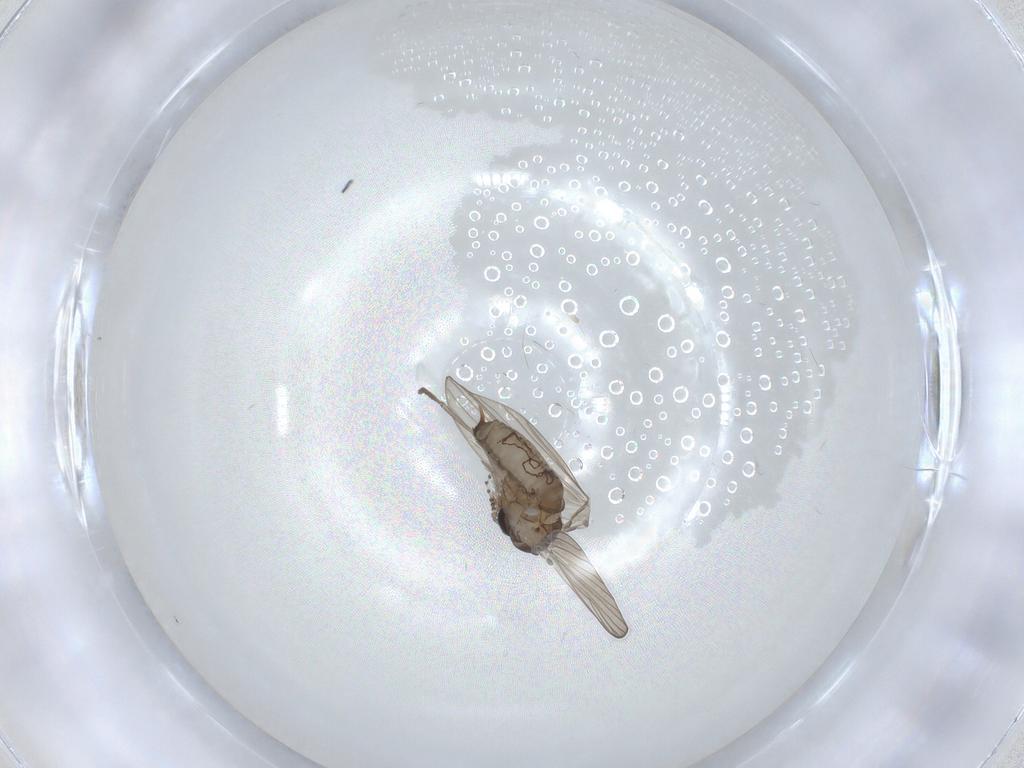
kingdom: Animalia
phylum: Arthropoda
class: Insecta
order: Diptera
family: Psychodidae
